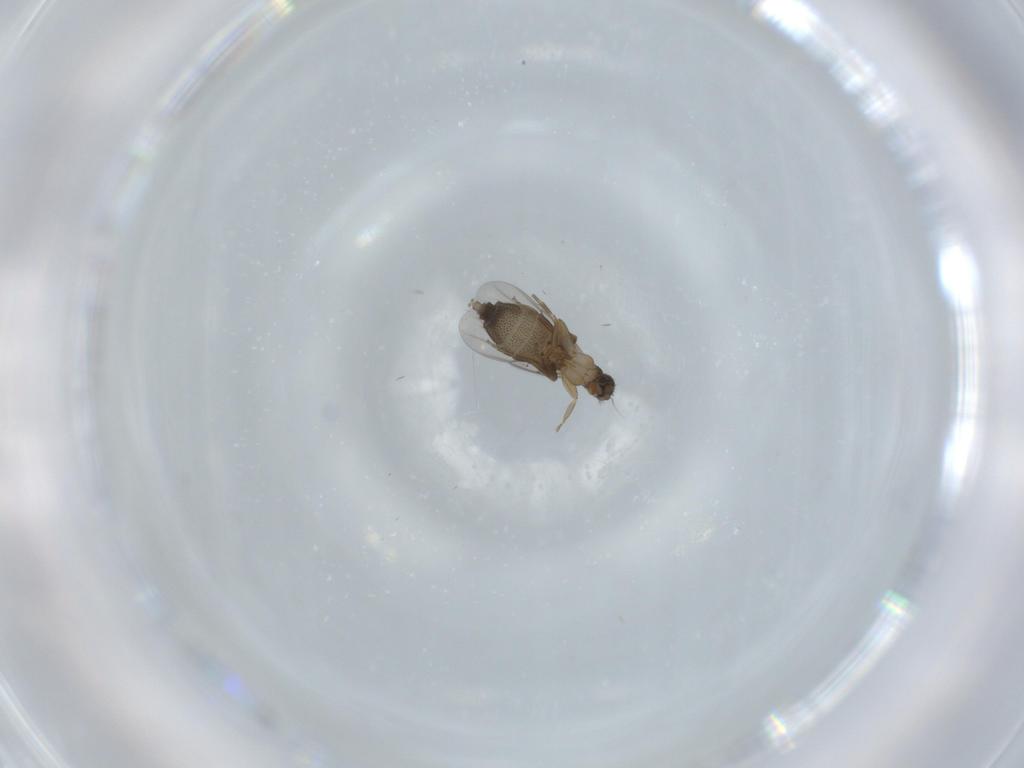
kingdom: Animalia
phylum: Arthropoda
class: Insecta
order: Diptera
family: Phoridae
